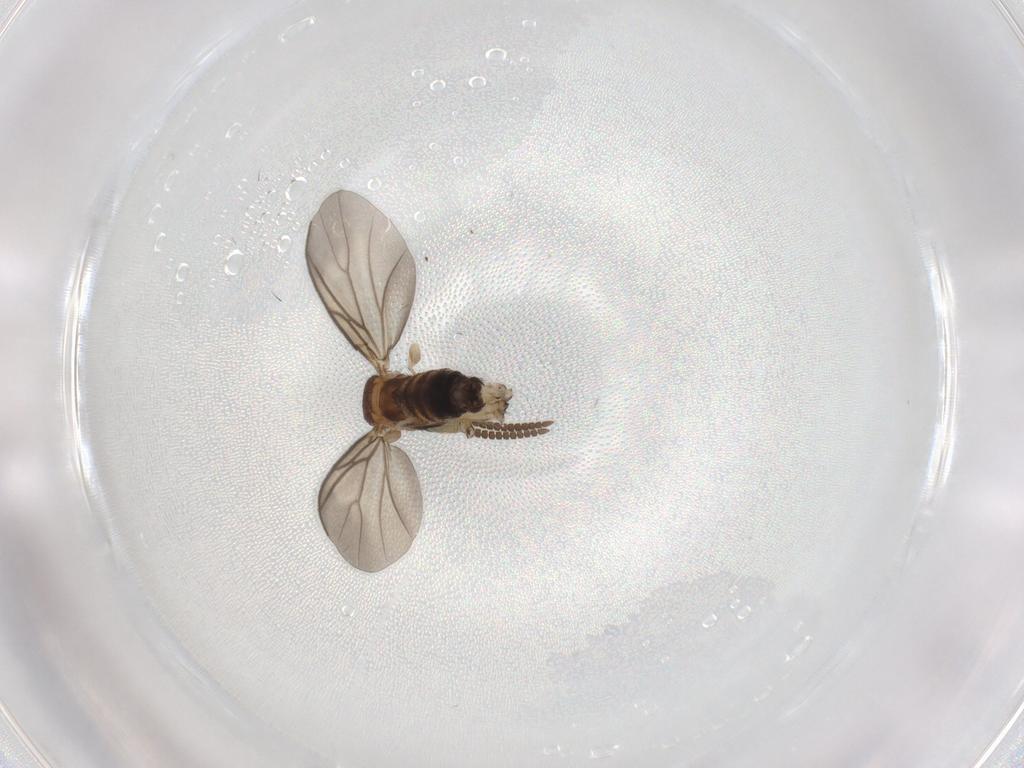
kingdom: Animalia
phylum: Arthropoda
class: Insecta
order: Diptera
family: Mycetophilidae
